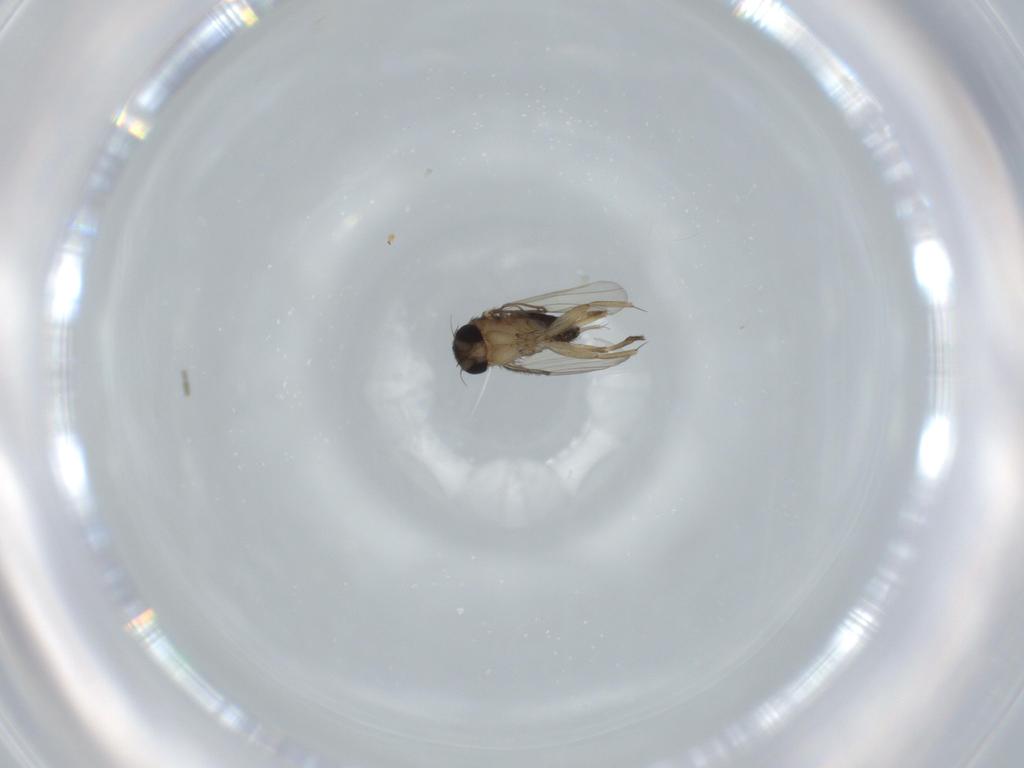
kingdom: Animalia
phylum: Arthropoda
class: Insecta
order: Diptera
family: Phoridae
